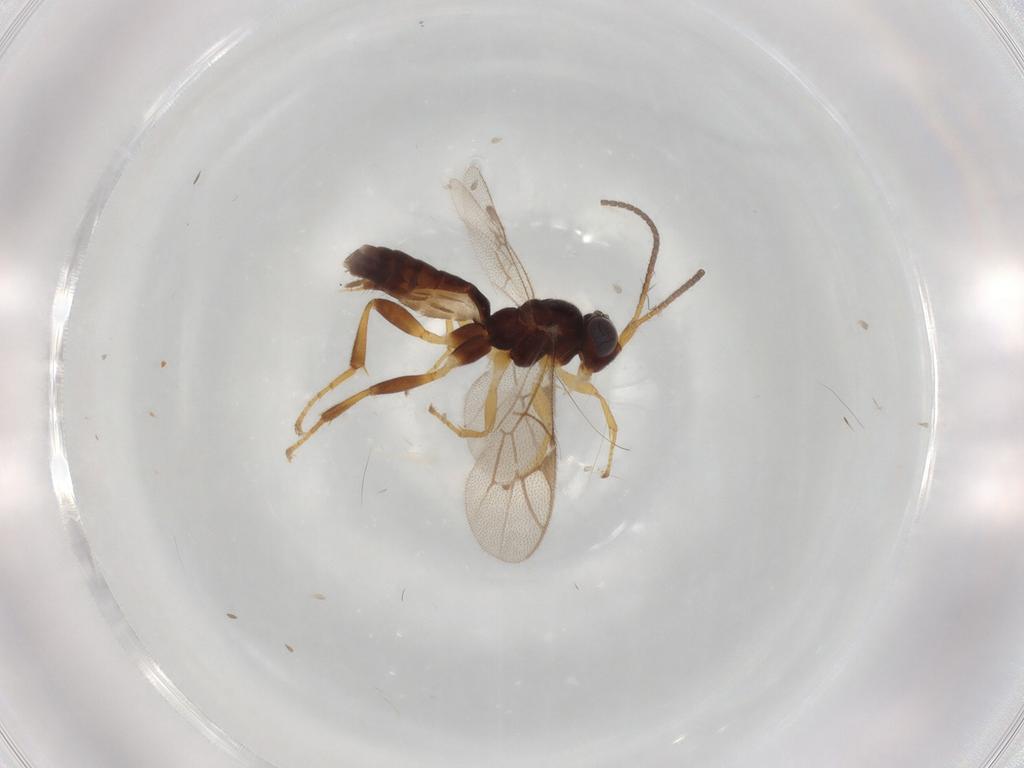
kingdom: Animalia
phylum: Arthropoda
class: Insecta
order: Hymenoptera
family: Ichneumonidae
